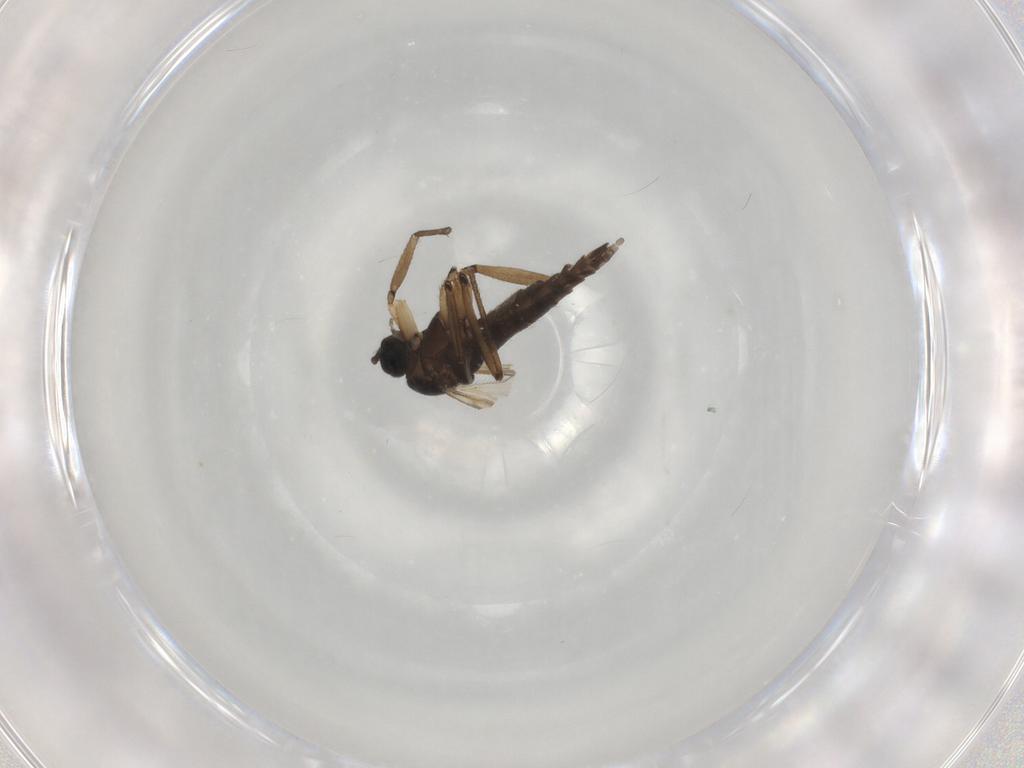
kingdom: Animalia
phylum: Arthropoda
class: Insecta
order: Diptera
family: Sciaridae
